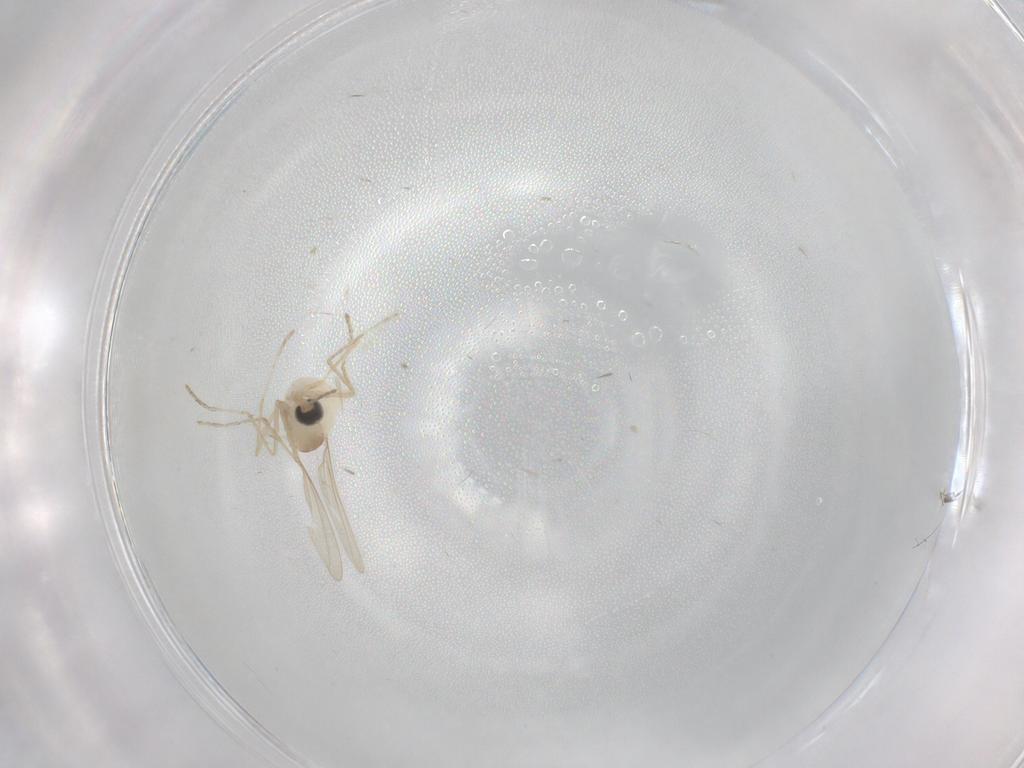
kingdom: Animalia
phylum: Arthropoda
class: Insecta
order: Diptera
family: Cecidomyiidae
